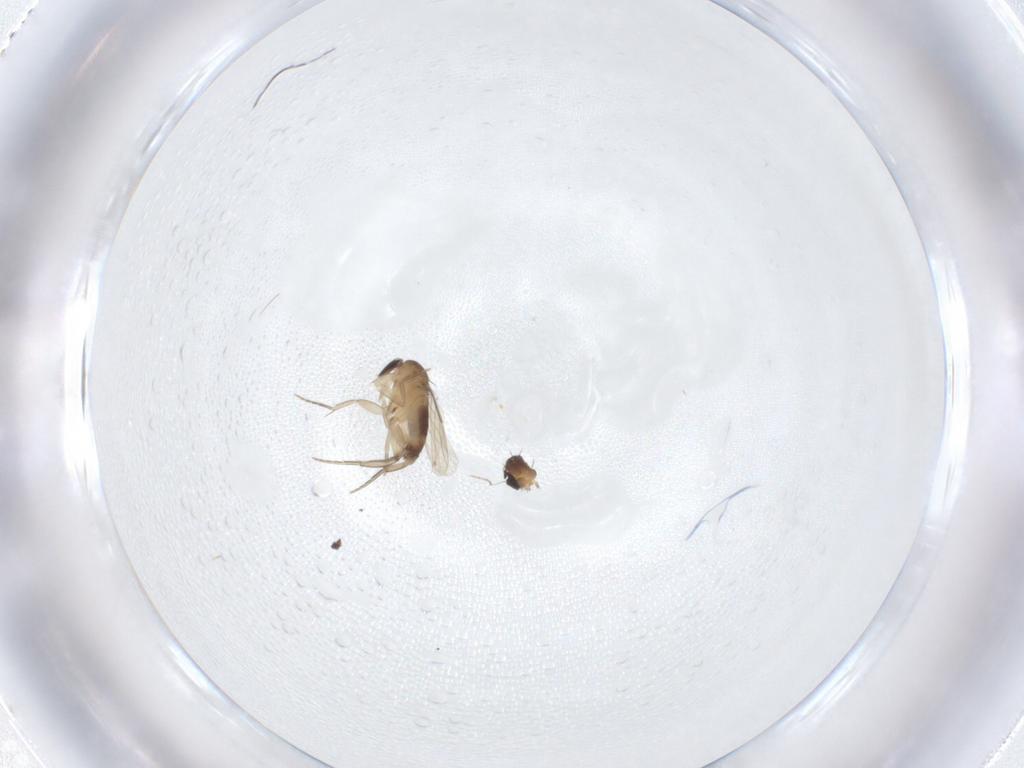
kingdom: Animalia
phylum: Arthropoda
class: Insecta
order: Diptera
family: Phoridae
